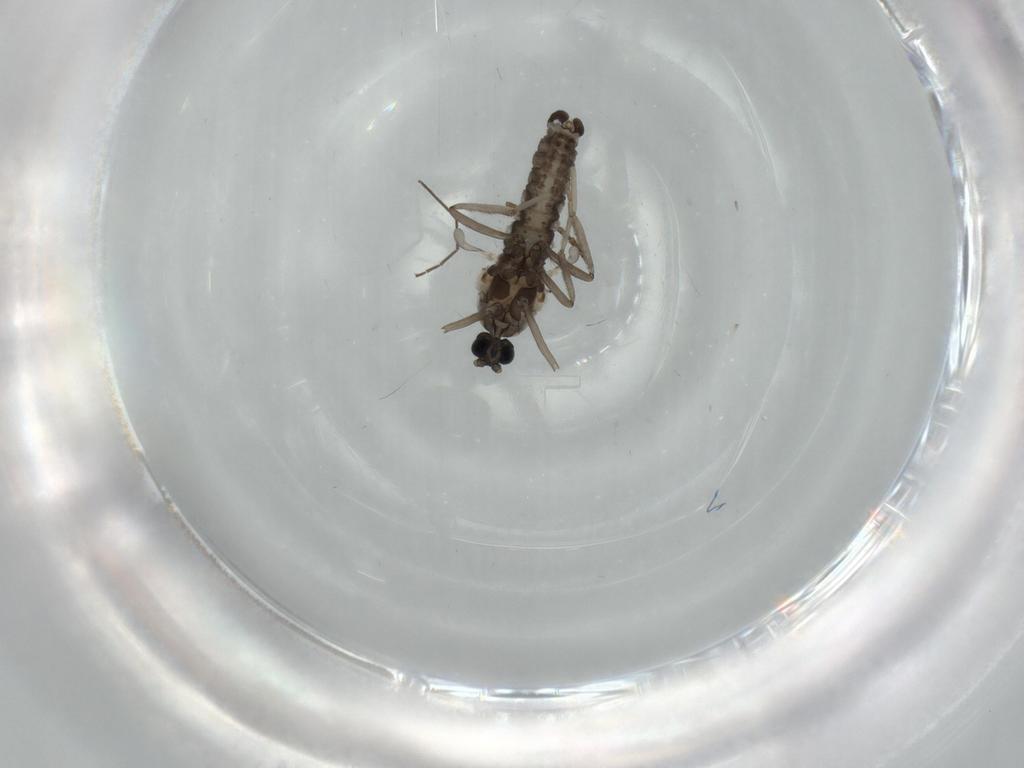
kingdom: Animalia
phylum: Arthropoda
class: Insecta
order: Diptera
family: Cecidomyiidae
